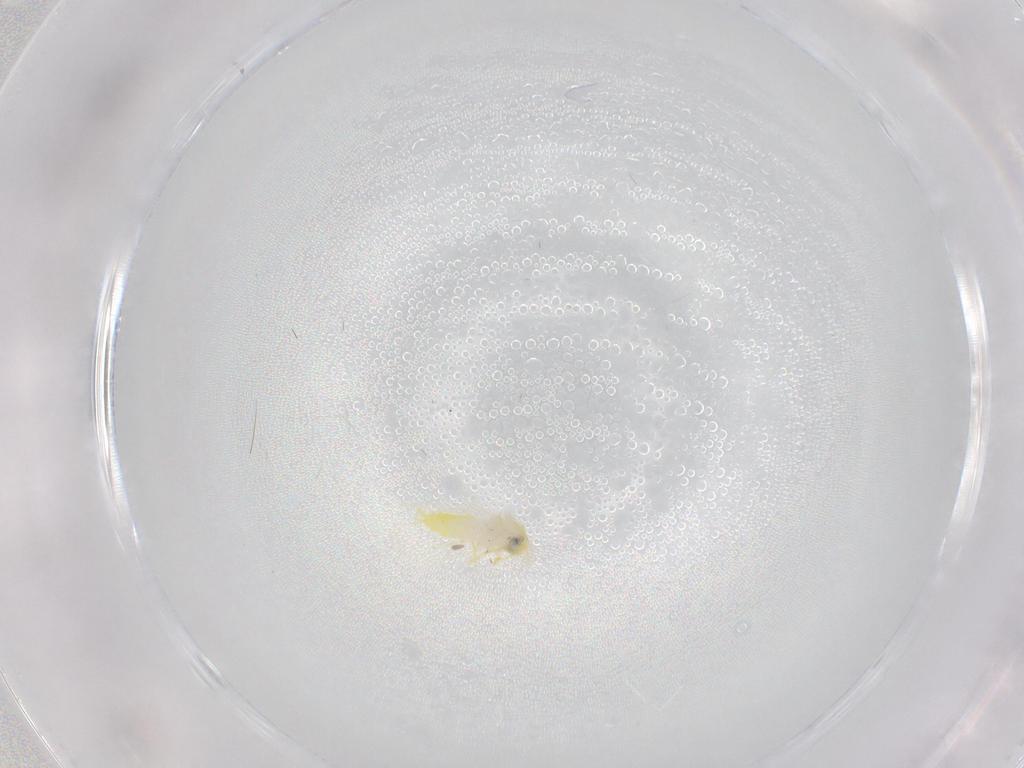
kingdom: Animalia
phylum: Arthropoda
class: Insecta
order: Hemiptera
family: Aleyrodidae
